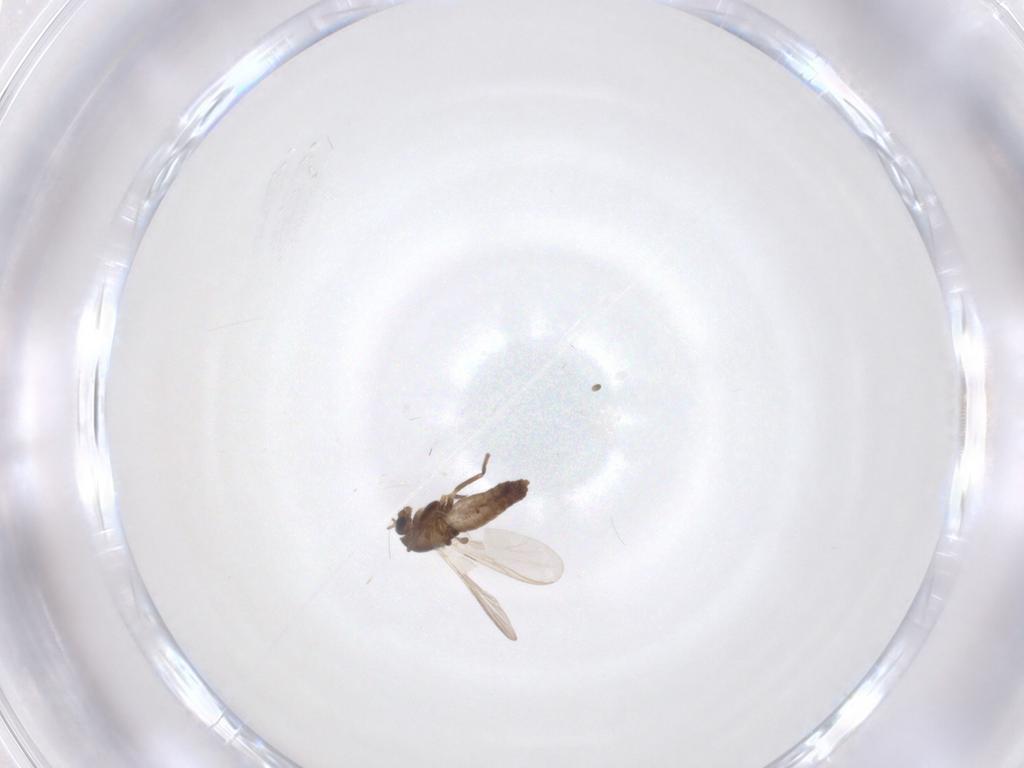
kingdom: Animalia
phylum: Arthropoda
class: Insecta
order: Diptera
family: Chironomidae
